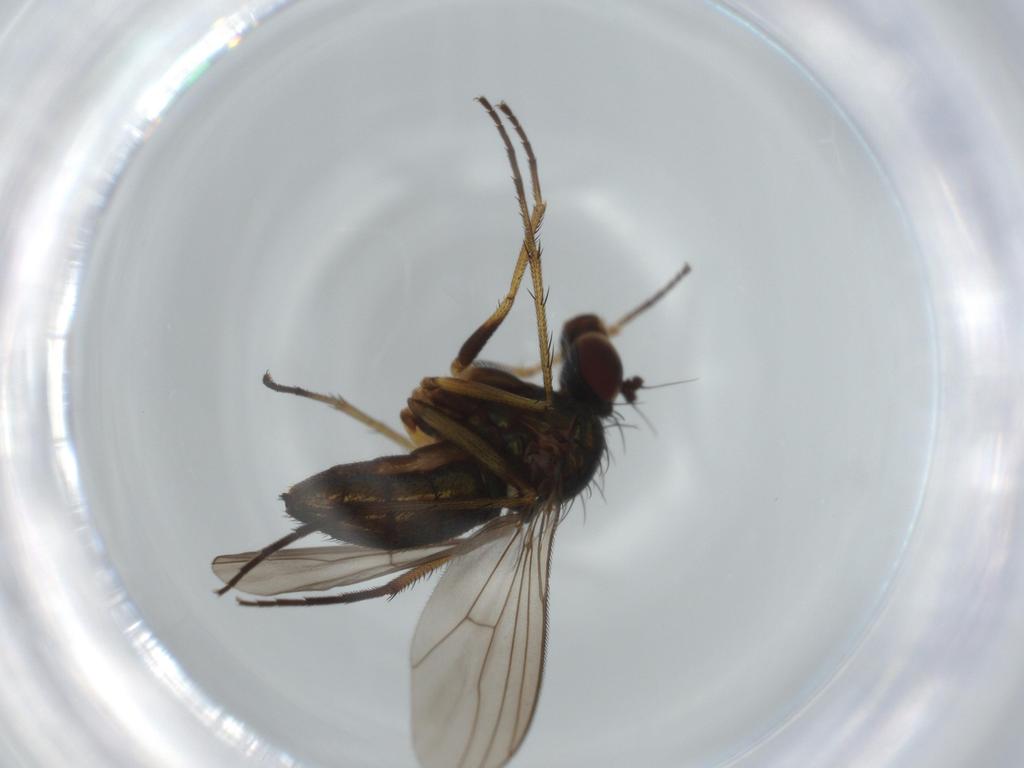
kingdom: Animalia
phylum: Arthropoda
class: Insecta
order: Diptera
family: Dolichopodidae
